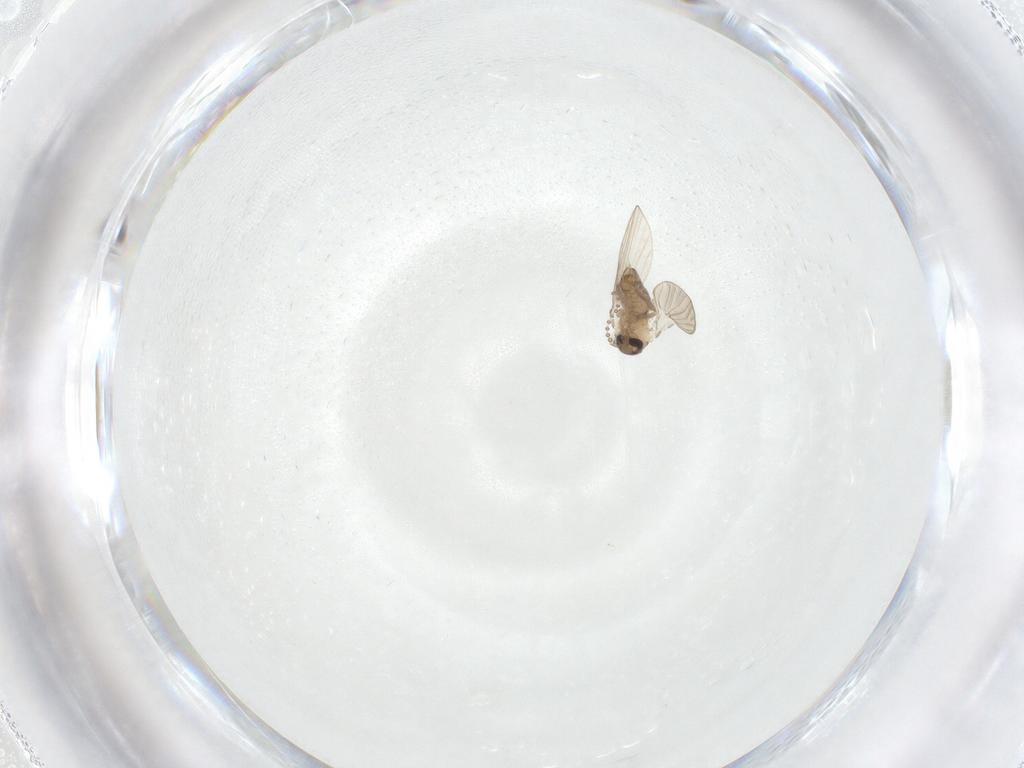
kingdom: Animalia
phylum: Arthropoda
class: Insecta
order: Diptera
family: Psychodidae
